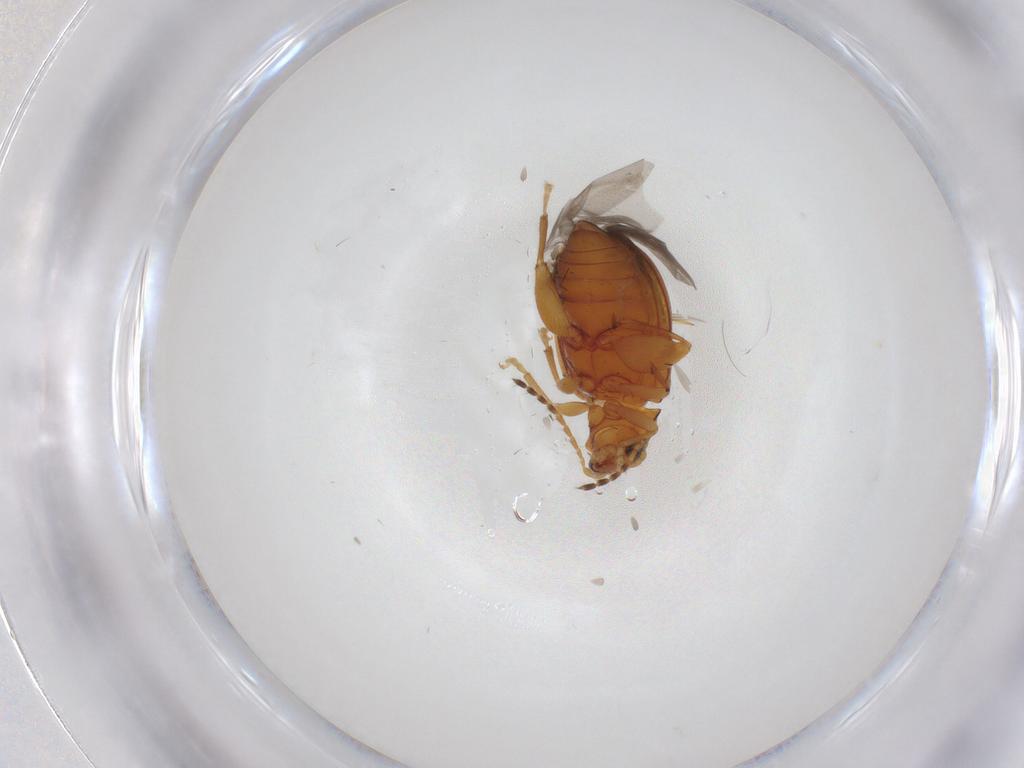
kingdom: Animalia
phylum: Arthropoda
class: Insecta
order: Coleoptera
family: Chrysomelidae
